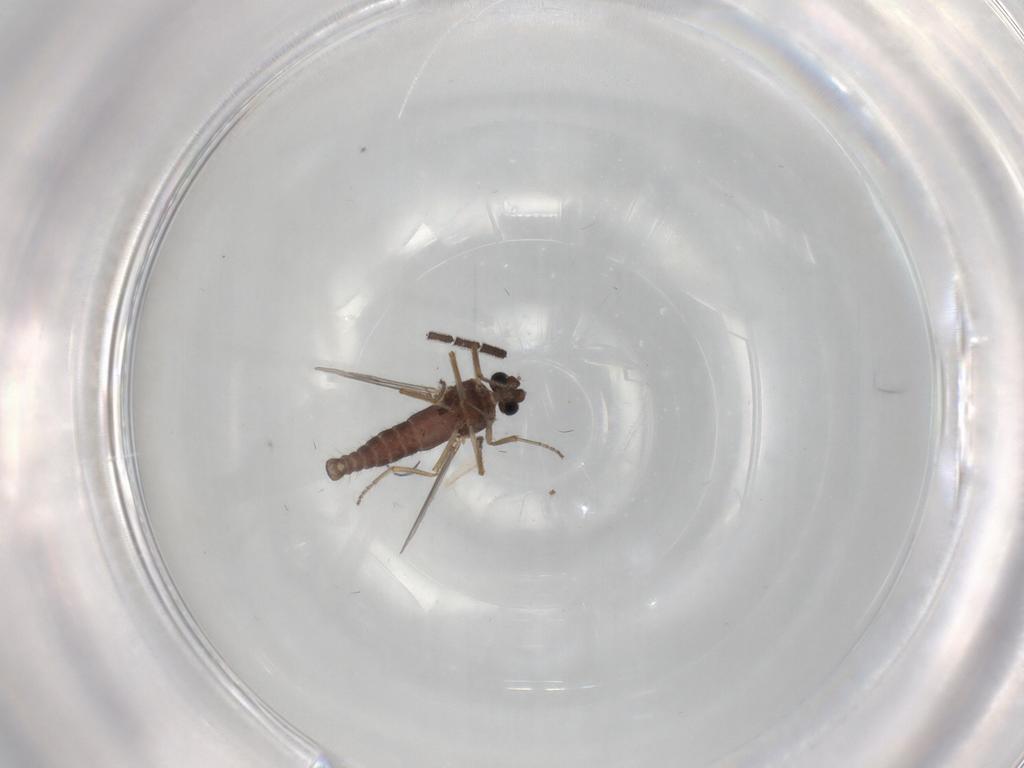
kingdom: Animalia
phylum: Arthropoda
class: Insecta
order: Diptera
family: Ceratopogonidae
